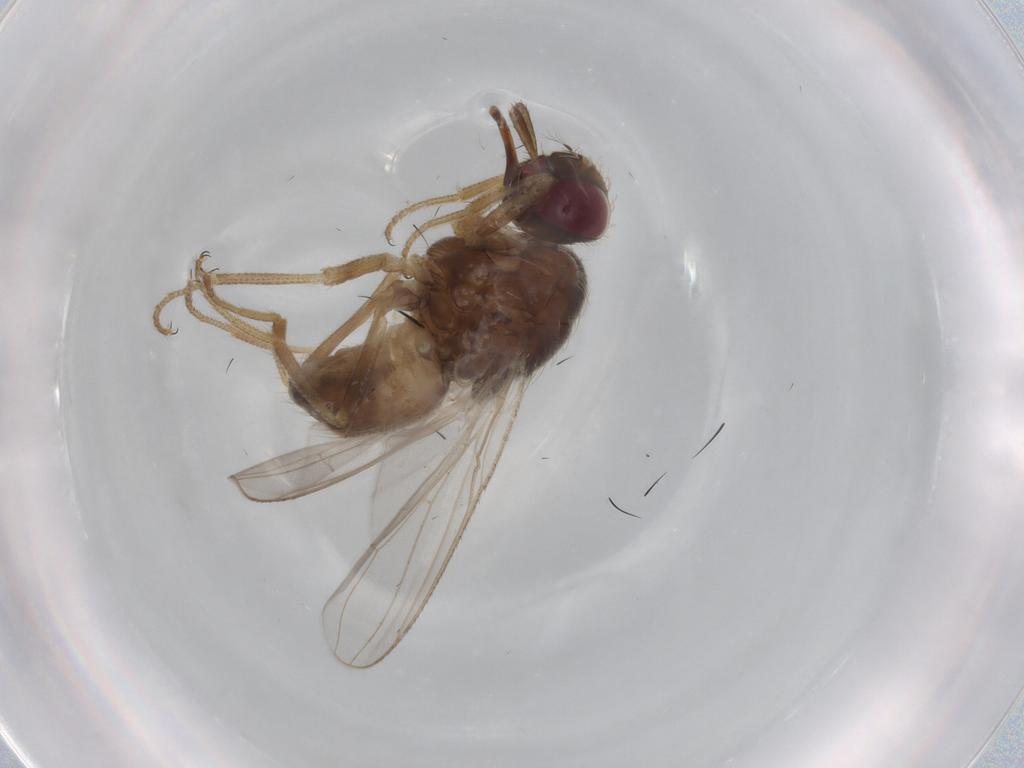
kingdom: Animalia
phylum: Arthropoda
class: Insecta
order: Diptera
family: Muscidae
